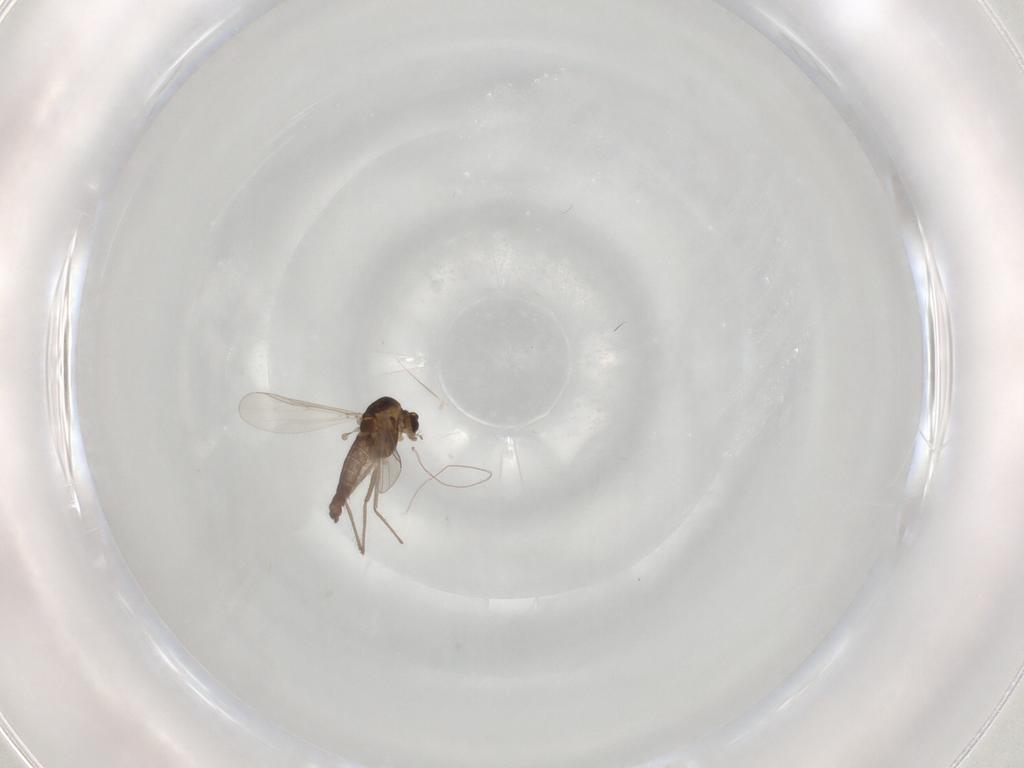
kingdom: Animalia
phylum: Arthropoda
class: Insecta
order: Diptera
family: Chironomidae
